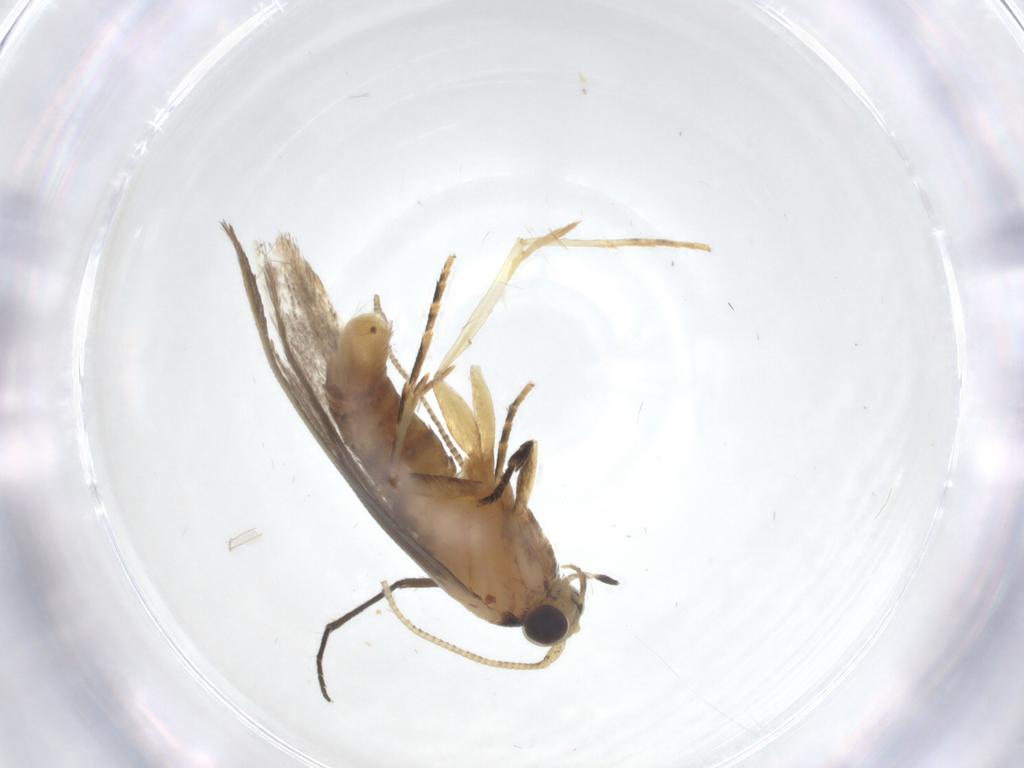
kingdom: Animalia
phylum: Arthropoda
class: Insecta
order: Lepidoptera
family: Tineidae
